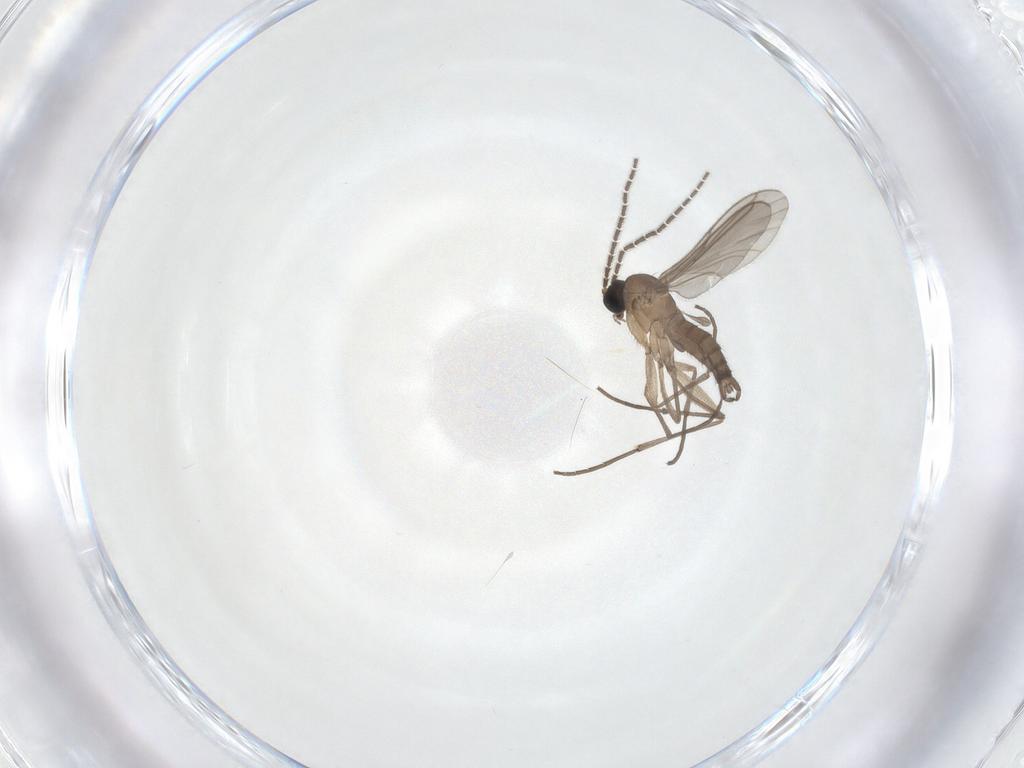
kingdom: Animalia
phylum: Arthropoda
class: Insecta
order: Diptera
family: Sciaridae
